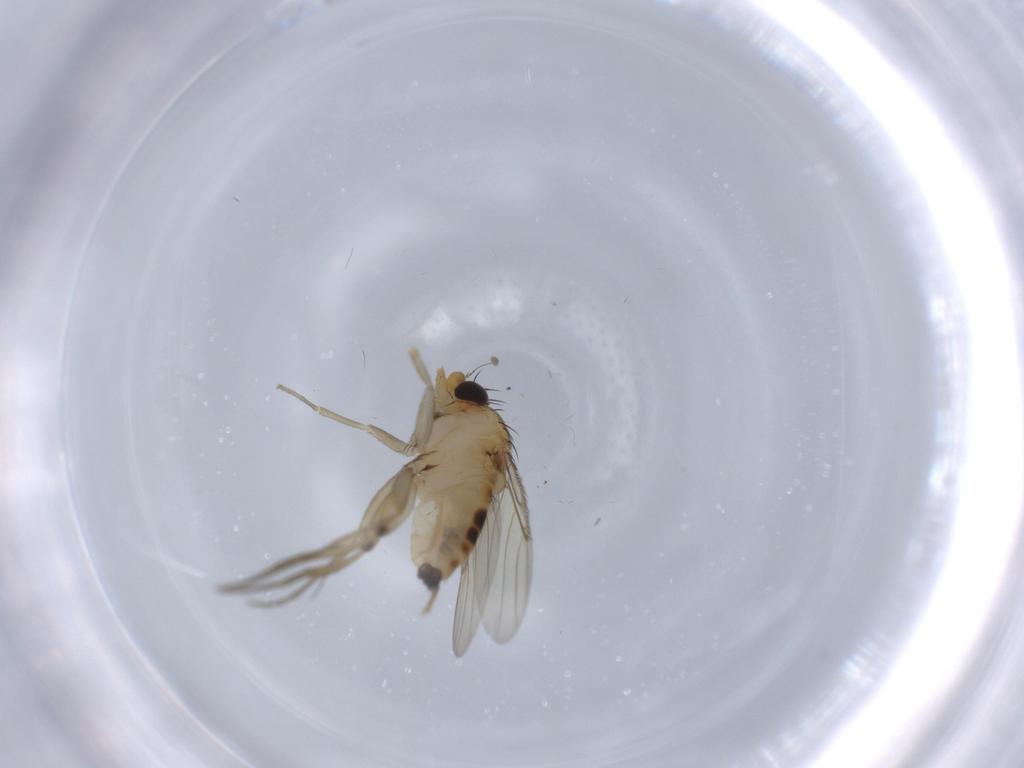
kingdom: Animalia
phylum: Arthropoda
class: Insecta
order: Diptera
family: Phoridae
